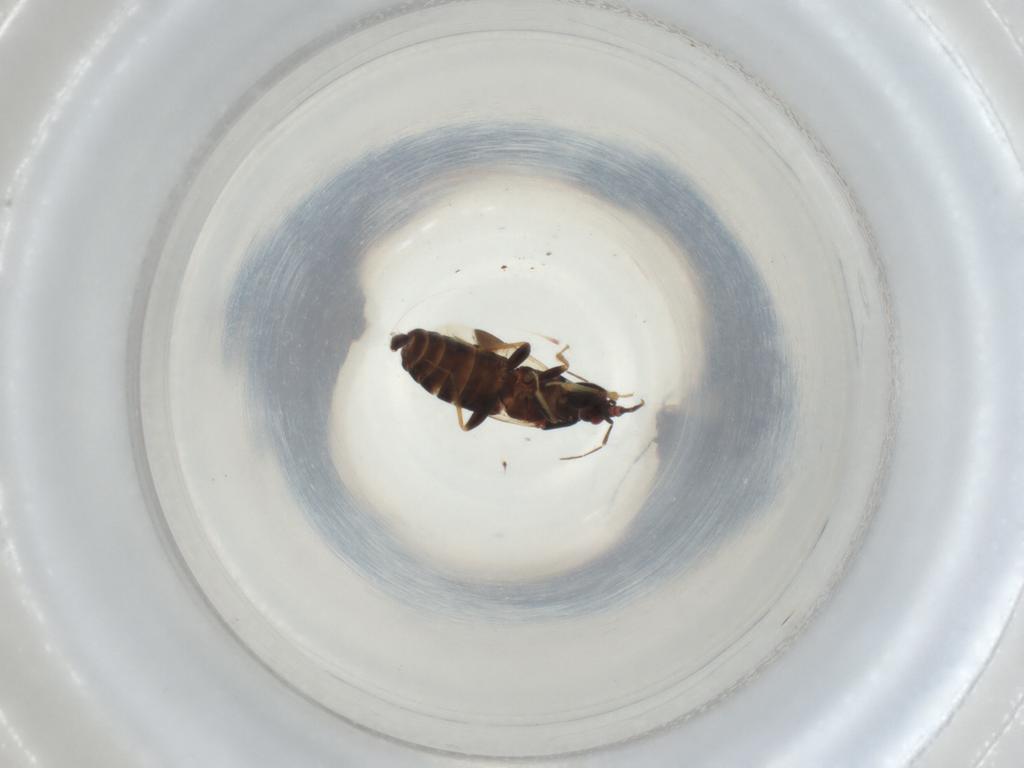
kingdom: Animalia
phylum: Arthropoda
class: Insecta
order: Hemiptera
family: Anthocoridae
